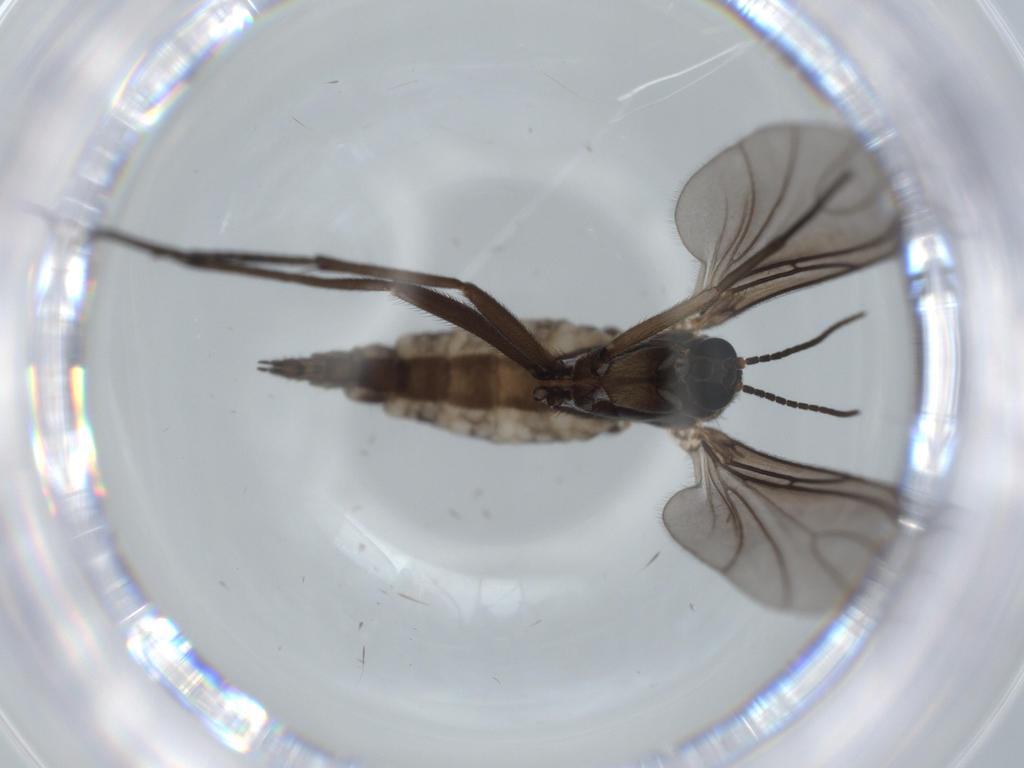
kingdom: Animalia
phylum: Arthropoda
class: Insecta
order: Diptera
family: Sciaridae
